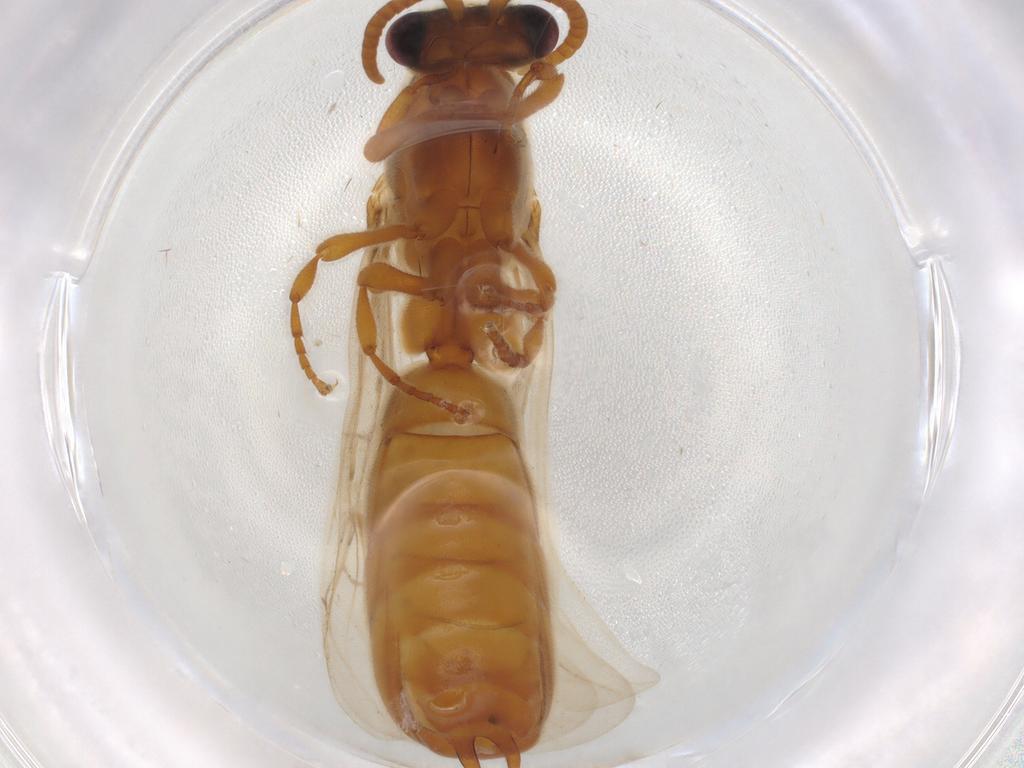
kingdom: Animalia
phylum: Arthropoda
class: Insecta
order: Hymenoptera
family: Formicidae
